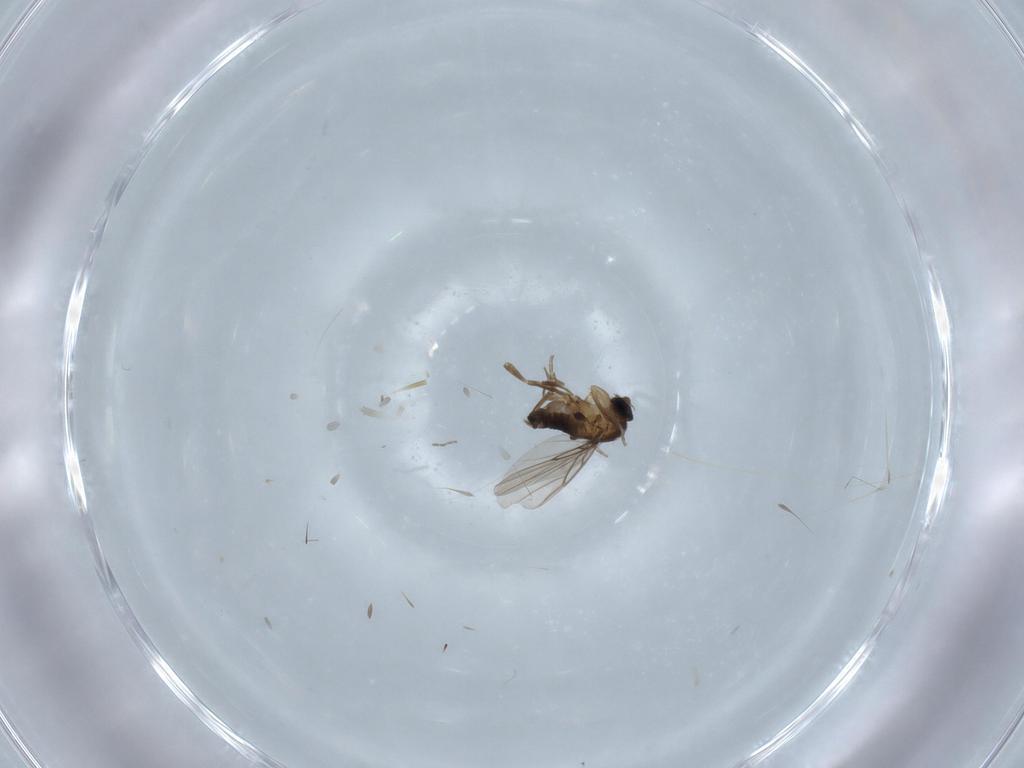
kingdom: Animalia
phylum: Arthropoda
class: Insecta
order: Diptera
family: Phoridae
